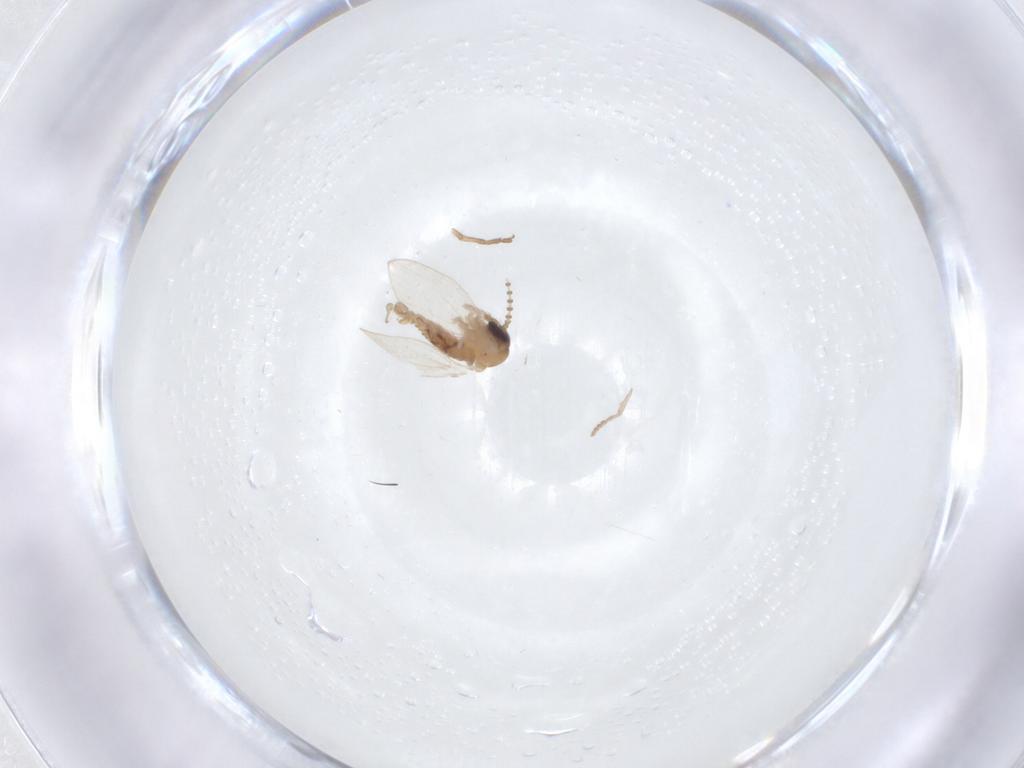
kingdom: Animalia
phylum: Arthropoda
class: Insecta
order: Diptera
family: Psychodidae
